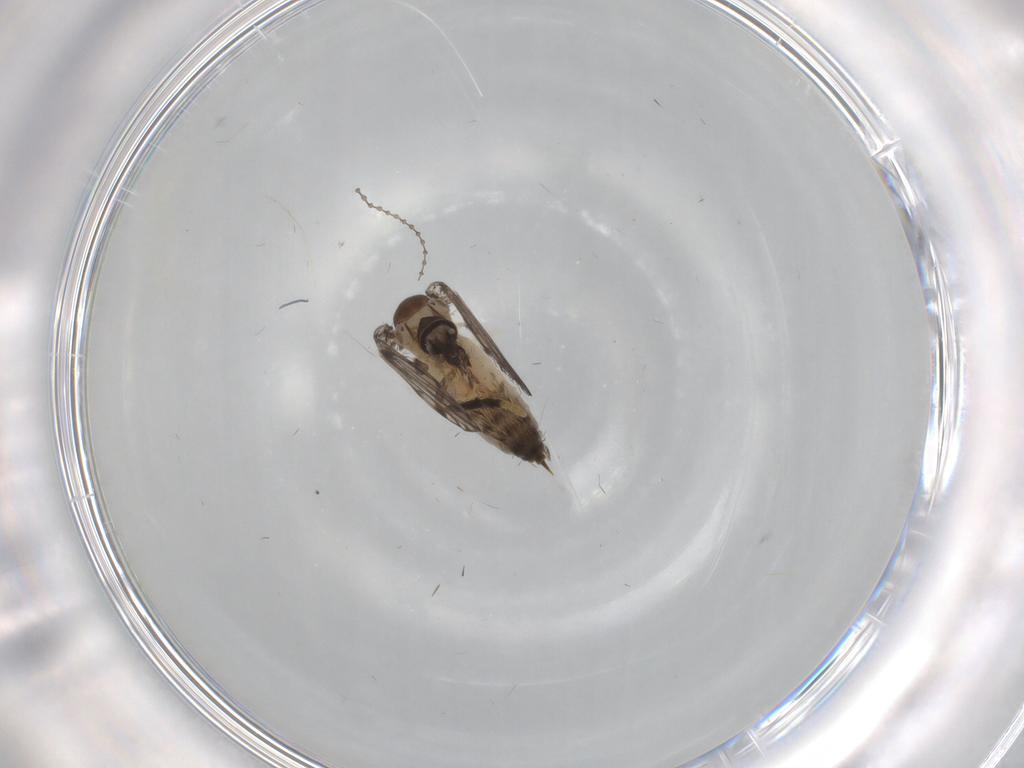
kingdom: Animalia
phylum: Arthropoda
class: Insecta
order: Diptera
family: Cecidomyiidae
